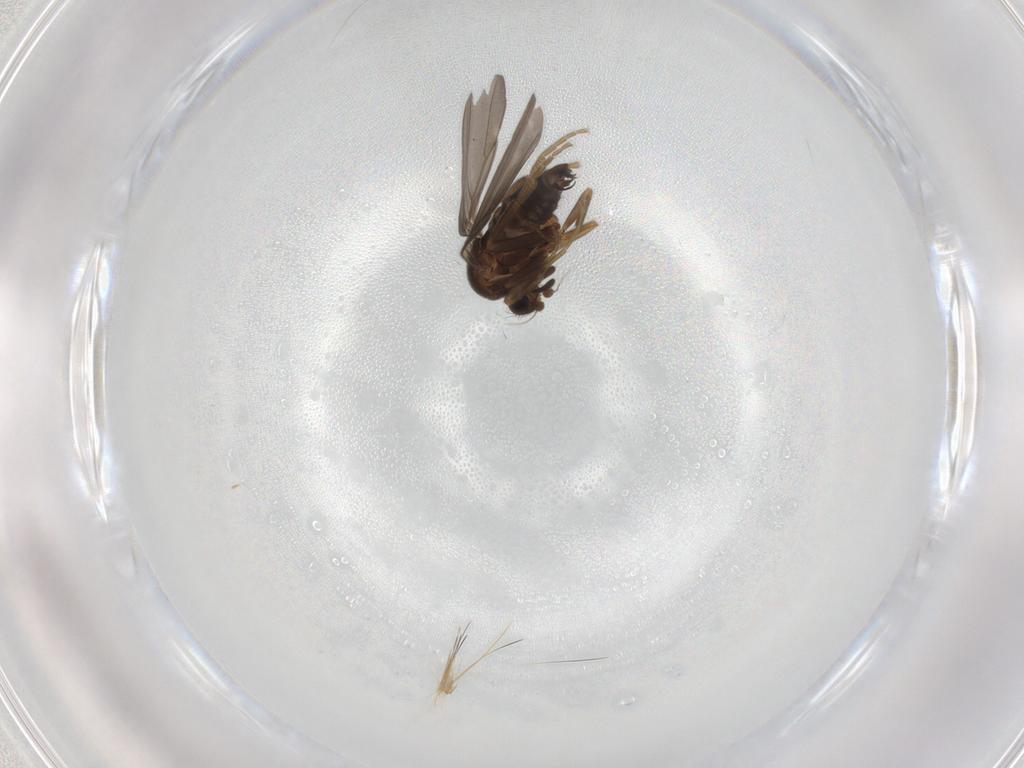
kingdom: Animalia
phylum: Arthropoda
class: Insecta
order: Diptera
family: Phoridae
